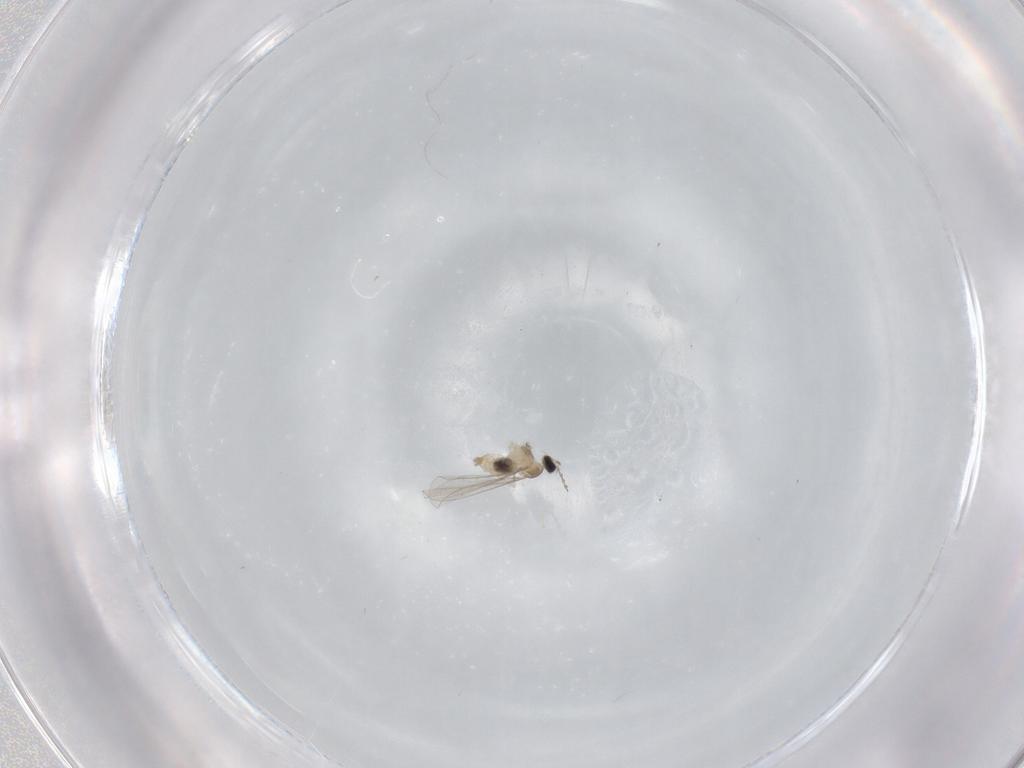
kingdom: Animalia
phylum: Arthropoda
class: Insecta
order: Diptera
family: Cecidomyiidae
